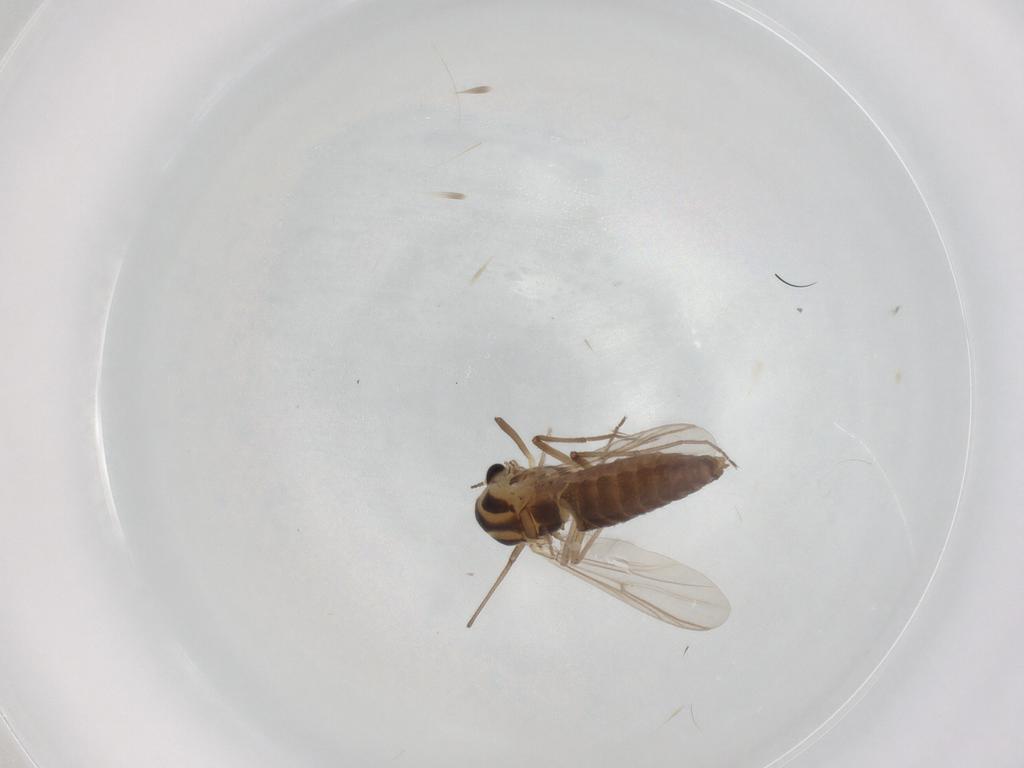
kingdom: Animalia
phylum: Arthropoda
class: Insecta
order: Diptera
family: Chironomidae
